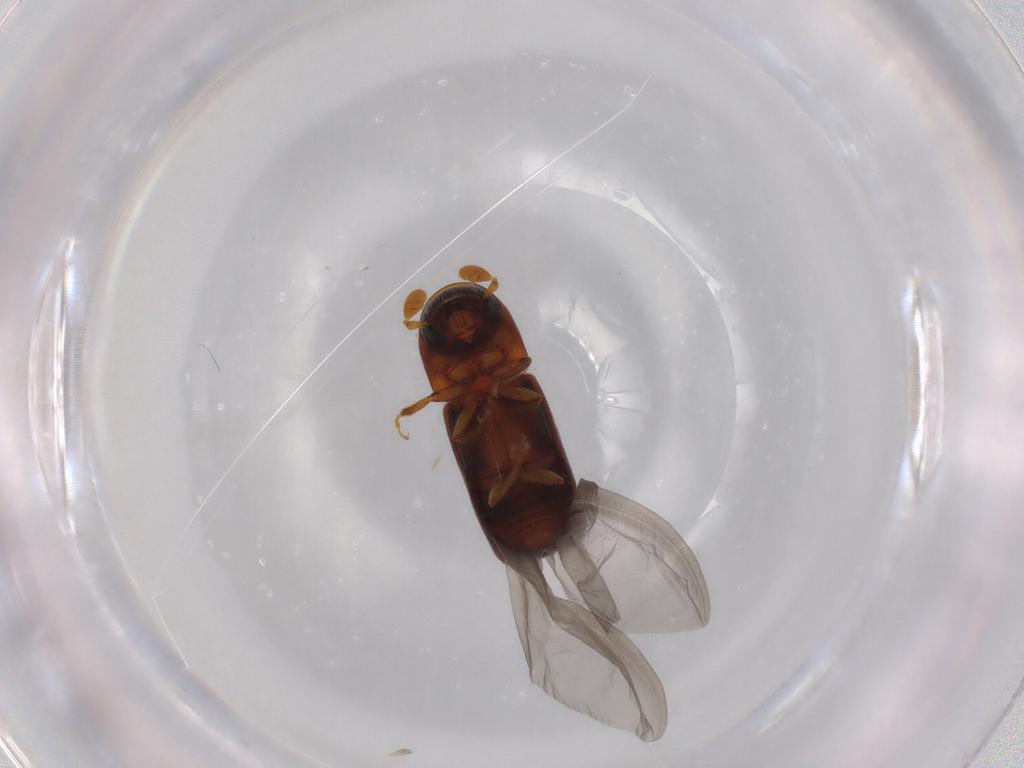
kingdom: Animalia
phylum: Arthropoda
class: Insecta
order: Coleoptera
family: Curculionidae
